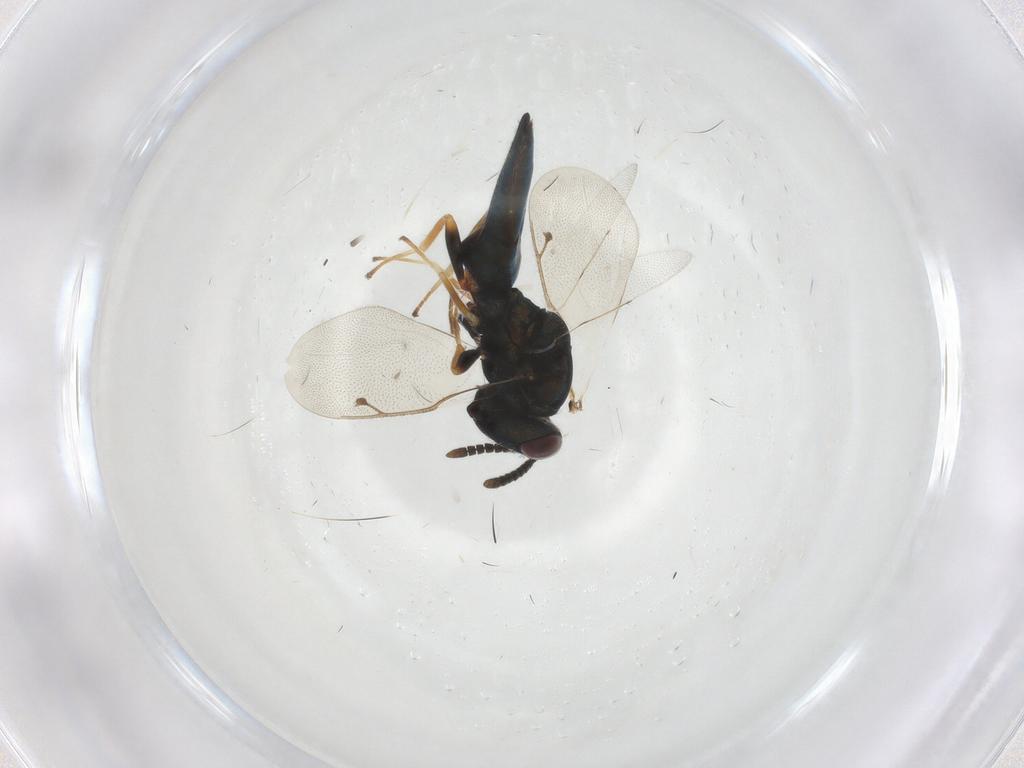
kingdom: Animalia
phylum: Arthropoda
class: Insecta
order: Hymenoptera
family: Pteromalidae
